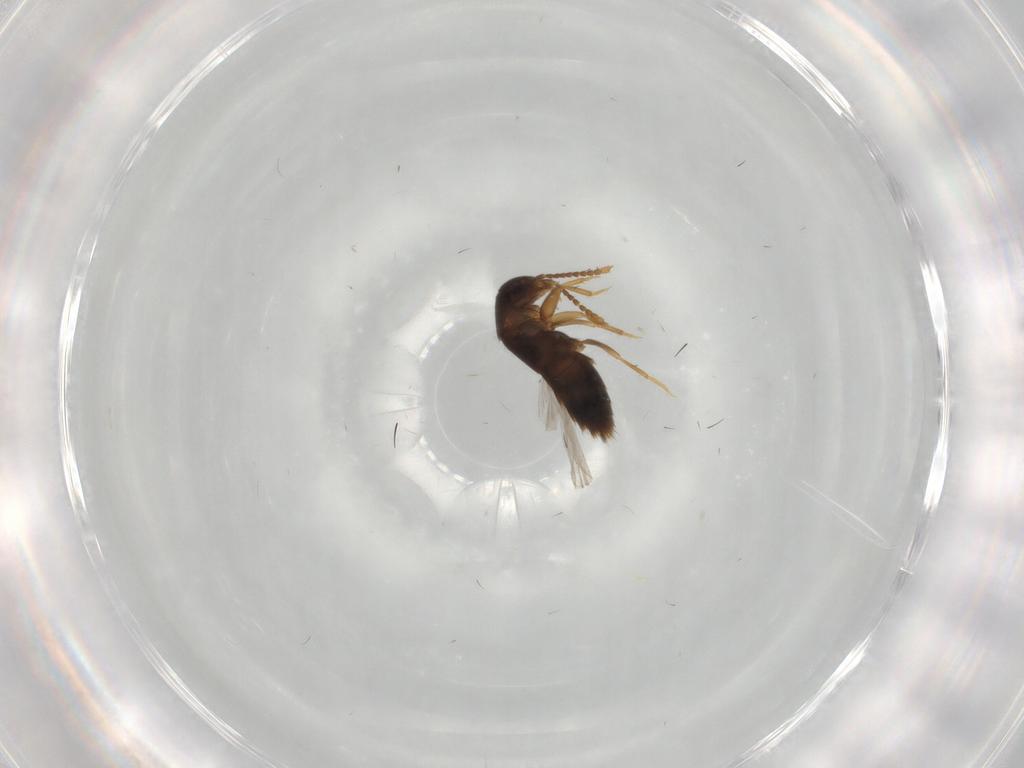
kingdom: Animalia
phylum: Arthropoda
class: Insecta
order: Coleoptera
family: Staphylinidae
